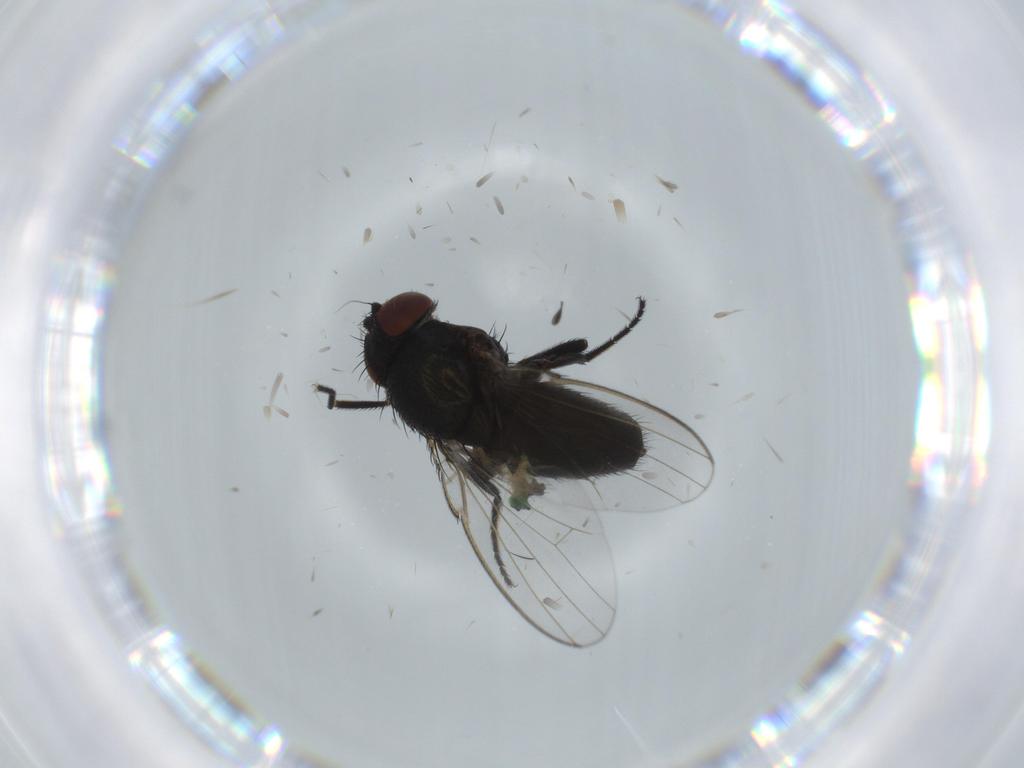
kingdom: Animalia
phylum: Arthropoda
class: Insecta
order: Diptera
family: Milichiidae
